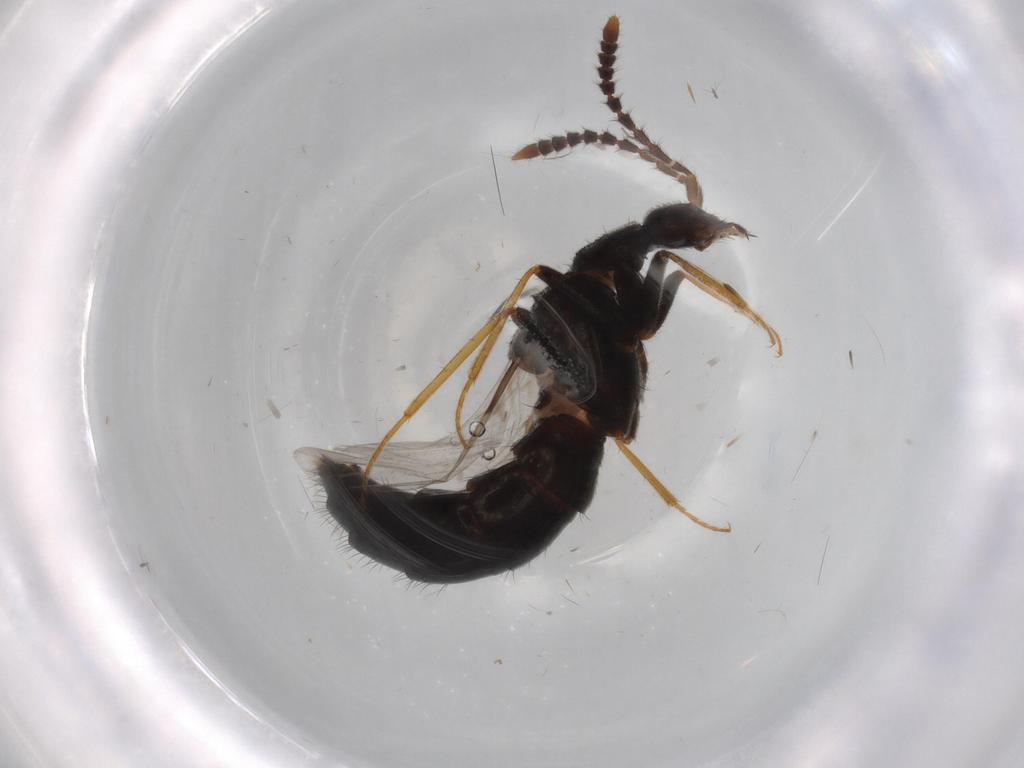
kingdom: Animalia
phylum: Arthropoda
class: Insecta
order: Coleoptera
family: Staphylinidae
